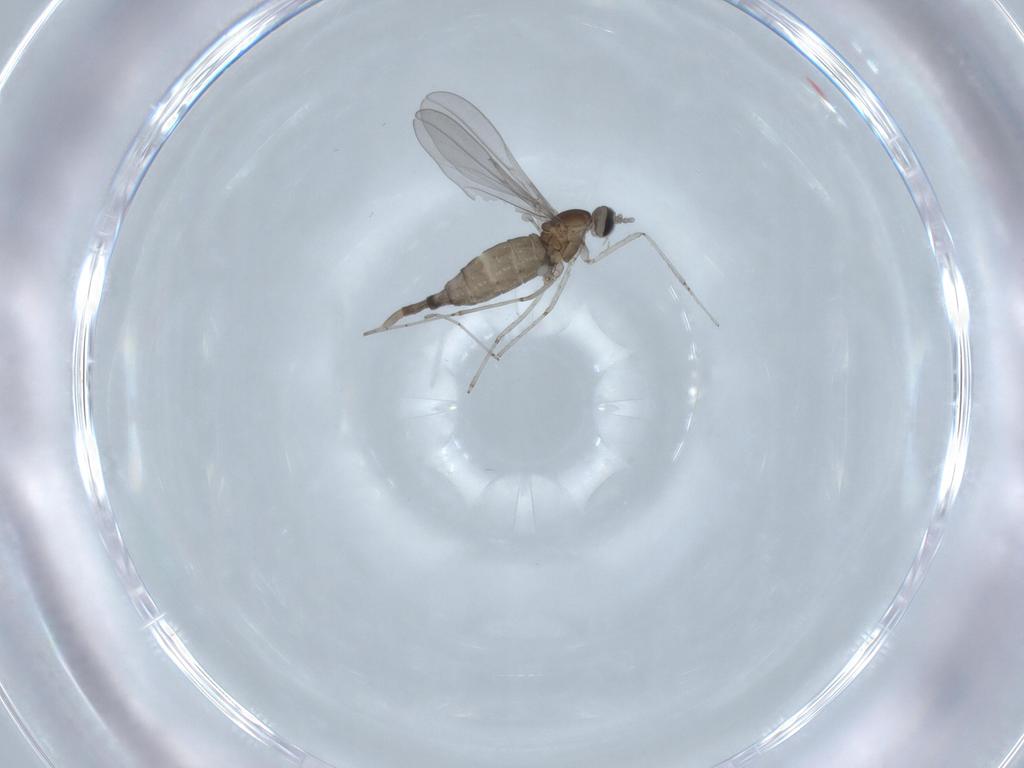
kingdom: Animalia
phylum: Arthropoda
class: Insecta
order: Diptera
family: Cecidomyiidae
